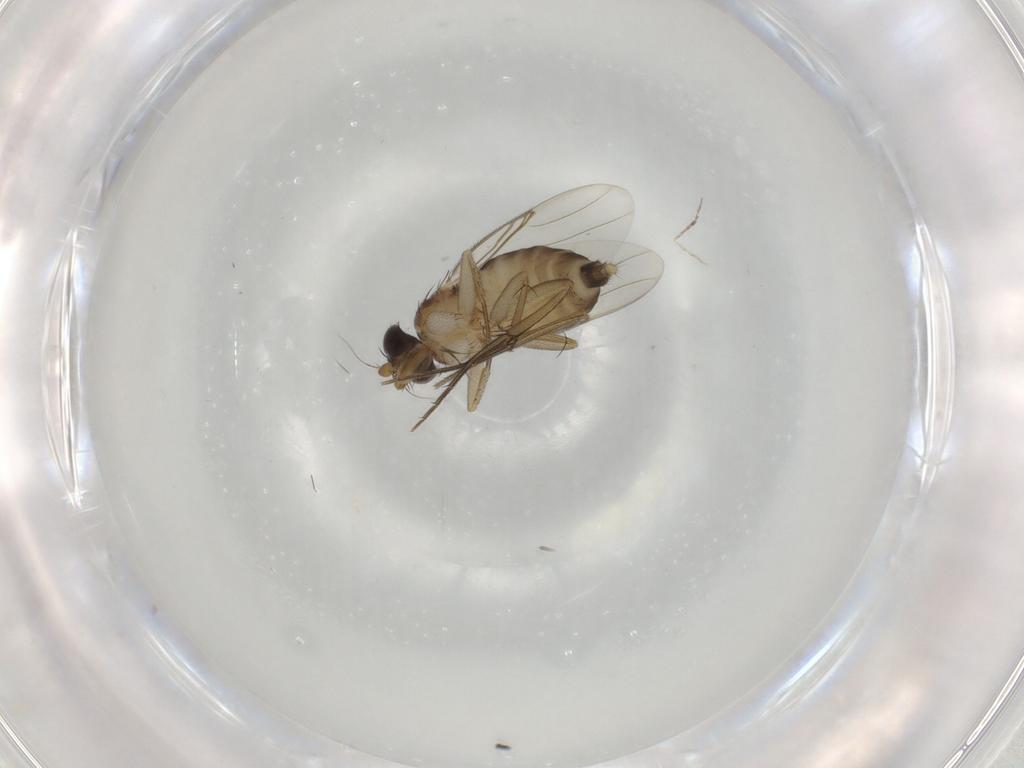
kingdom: Animalia
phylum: Arthropoda
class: Insecta
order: Diptera
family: Phoridae
